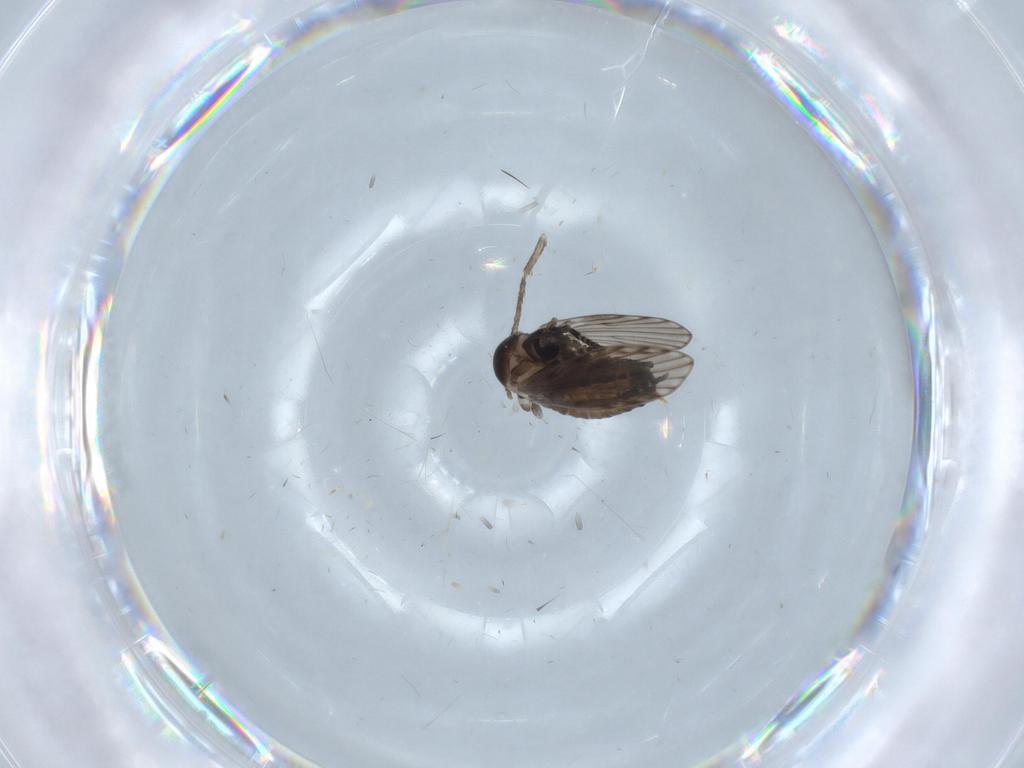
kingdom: Animalia
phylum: Arthropoda
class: Insecta
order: Diptera
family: Psychodidae
